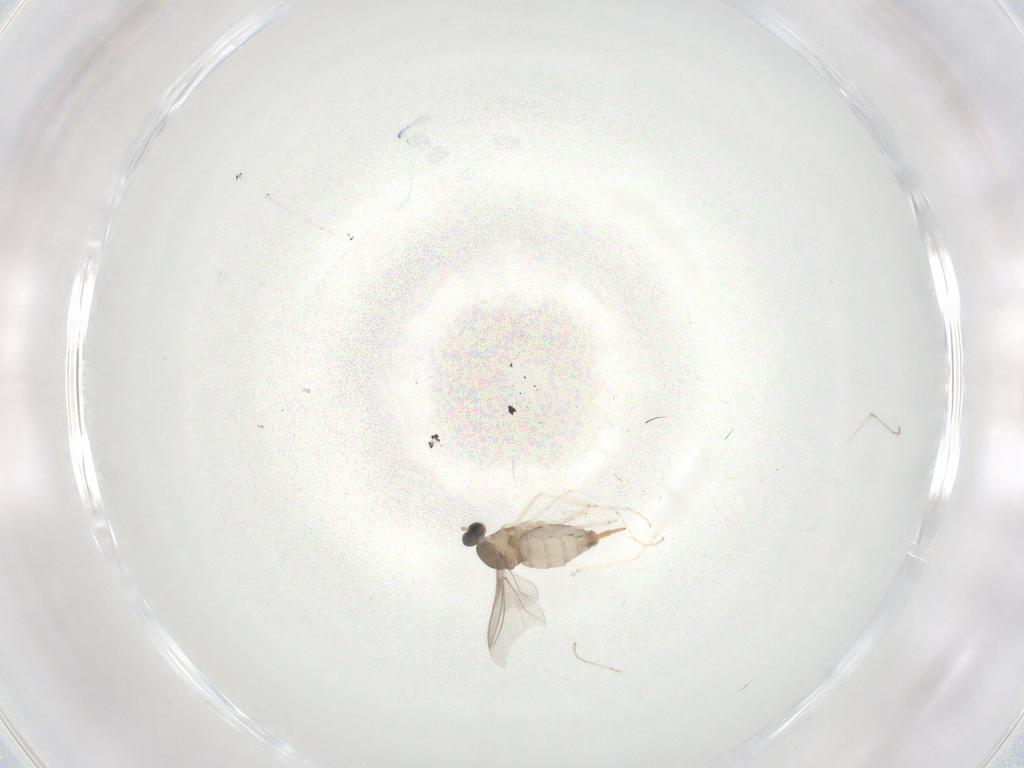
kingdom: Animalia
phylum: Arthropoda
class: Insecta
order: Diptera
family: Cecidomyiidae
